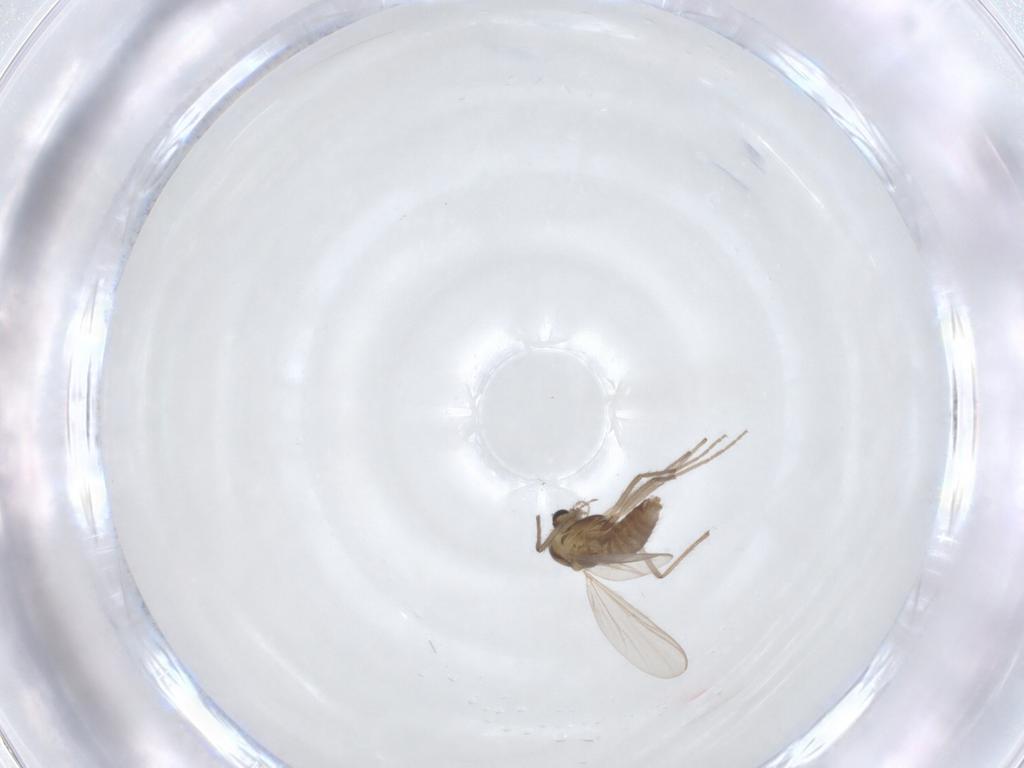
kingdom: Animalia
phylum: Arthropoda
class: Insecta
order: Diptera
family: Chironomidae
